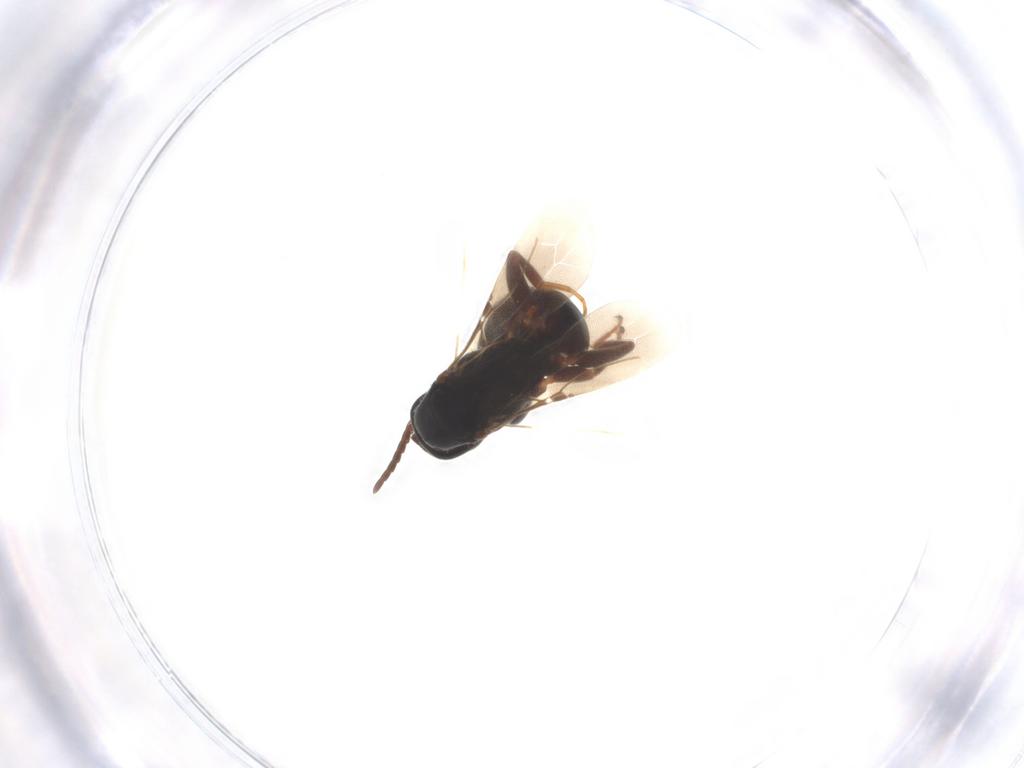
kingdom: Animalia
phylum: Arthropoda
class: Insecta
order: Hymenoptera
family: Bethylidae
